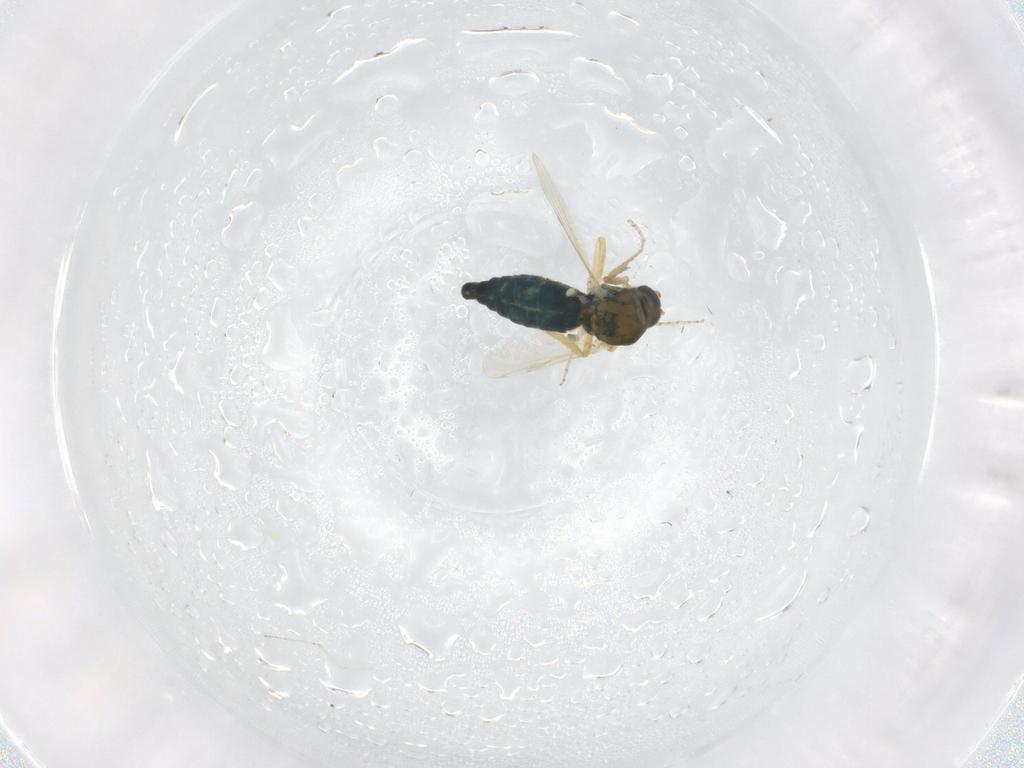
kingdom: Animalia
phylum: Arthropoda
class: Insecta
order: Diptera
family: Ceratopogonidae
